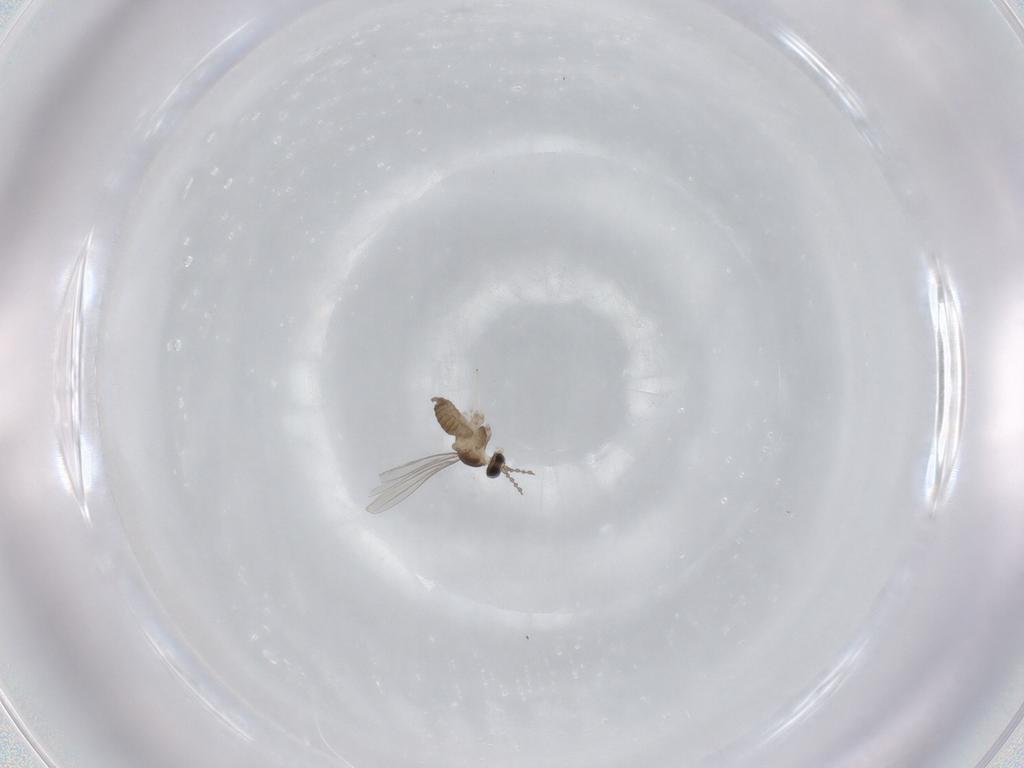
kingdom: Animalia
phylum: Arthropoda
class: Insecta
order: Diptera
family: Cecidomyiidae
